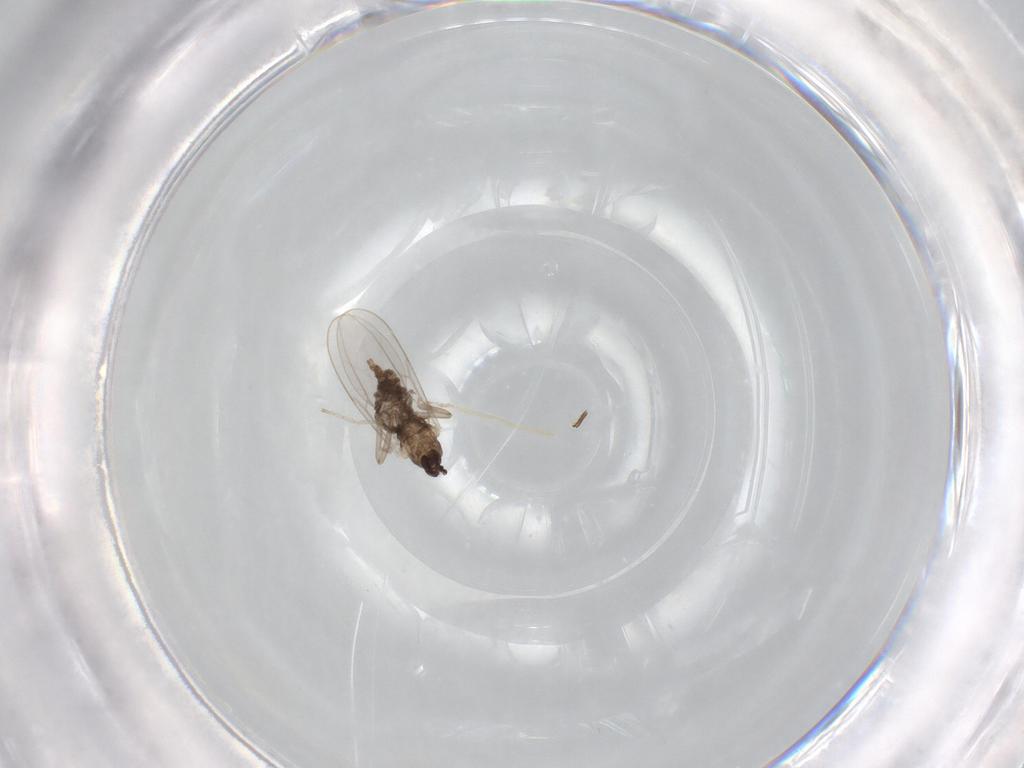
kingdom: Animalia
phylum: Arthropoda
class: Insecta
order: Diptera
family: Cecidomyiidae
